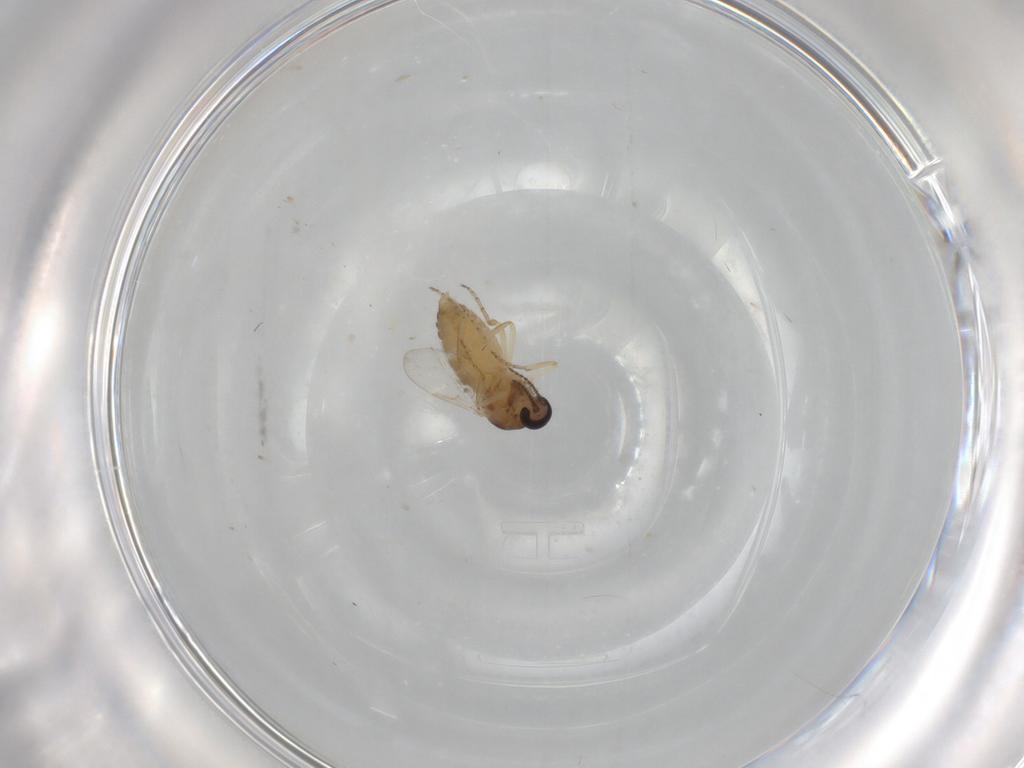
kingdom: Animalia
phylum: Arthropoda
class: Insecta
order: Diptera
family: Ceratopogonidae
